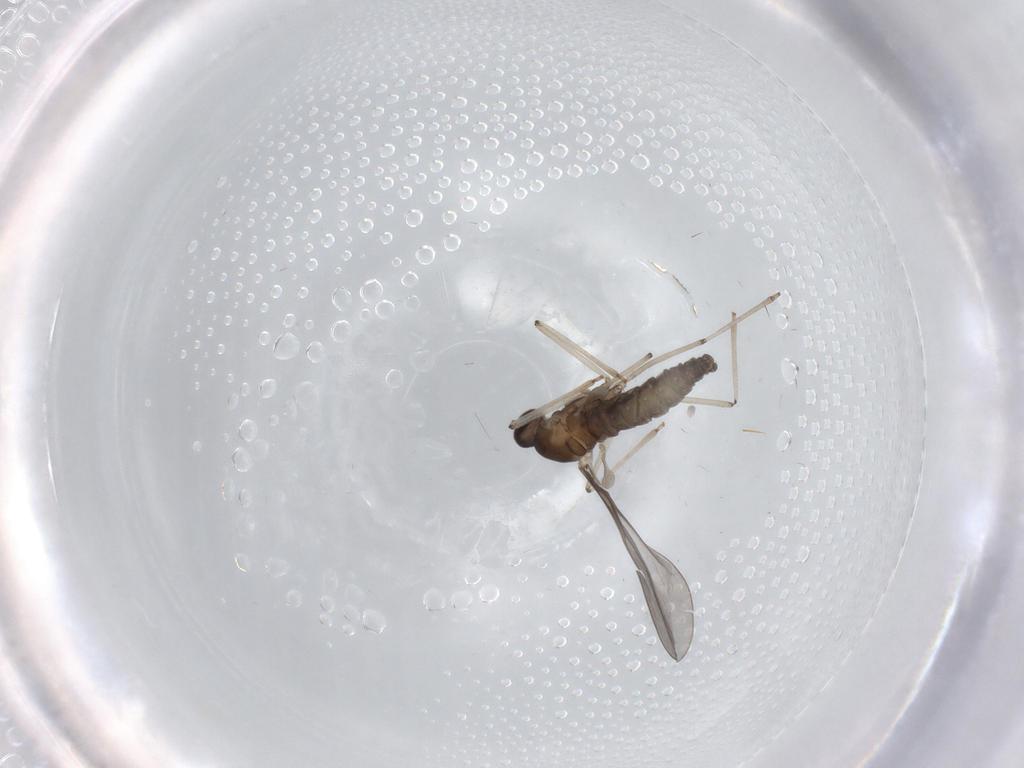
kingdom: Animalia
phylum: Arthropoda
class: Insecta
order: Diptera
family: Cecidomyiidae
